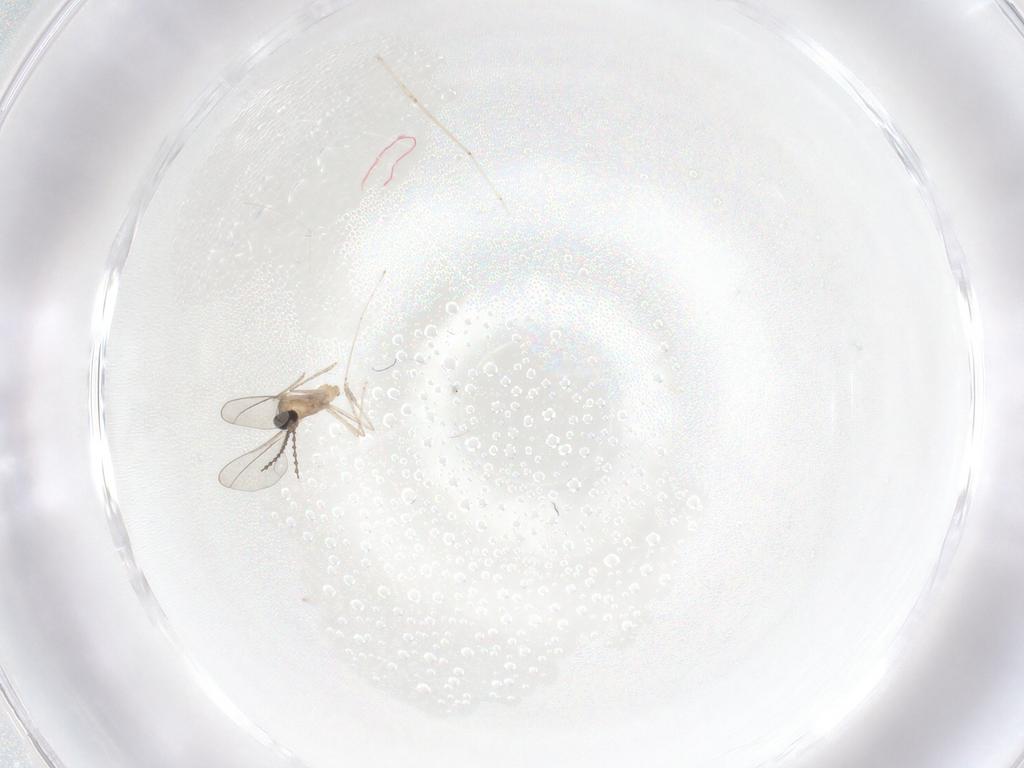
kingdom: Animalia
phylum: Arthropoda
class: Insecta
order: Diptera
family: Cecidomyiidae
